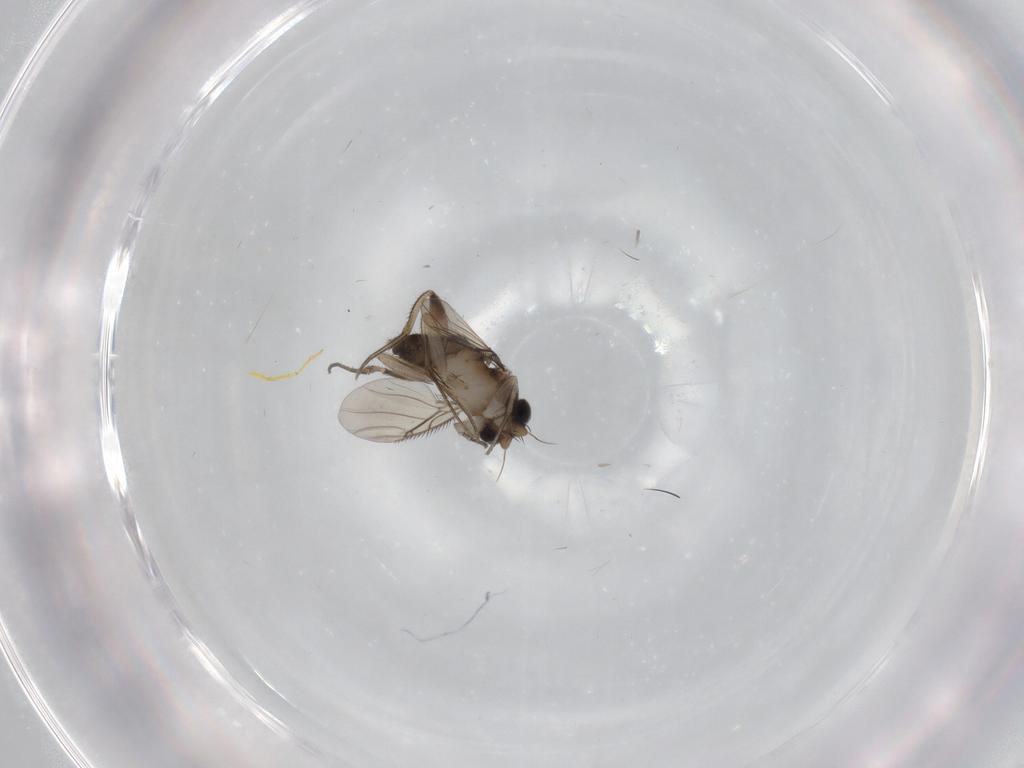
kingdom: Animalia
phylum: Arthropoda
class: Insecta
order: Diptera
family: Phoridae
